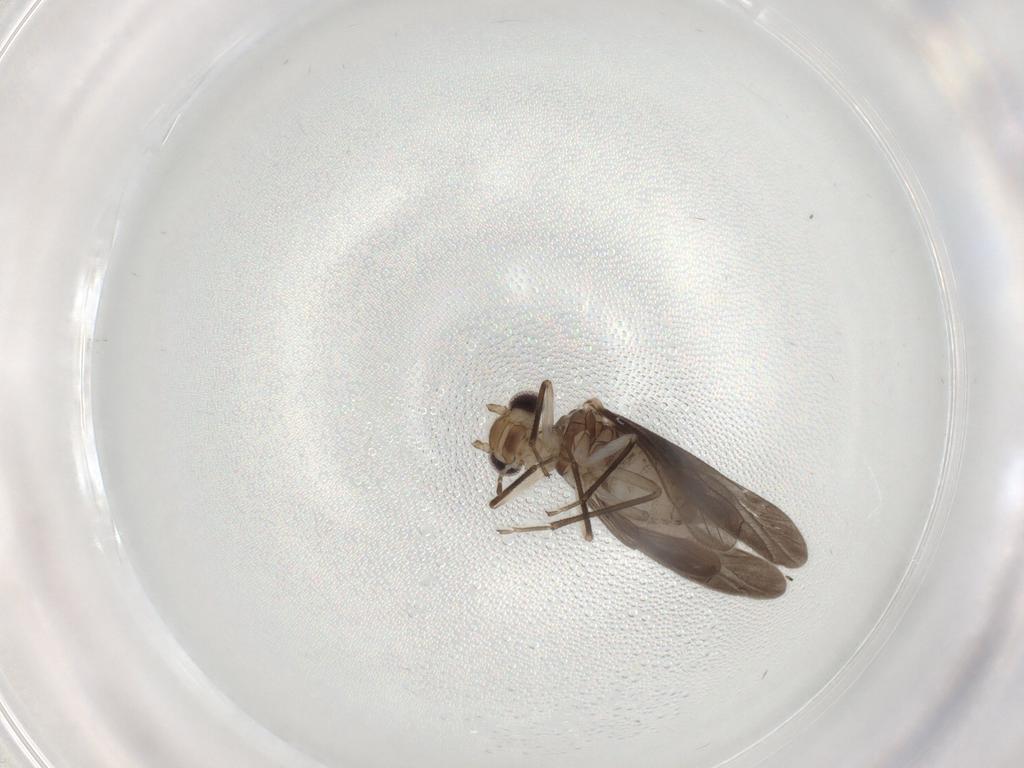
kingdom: Animalia
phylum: Arthropoda
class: Insecta
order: Psocodea
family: Caeciliusidae
